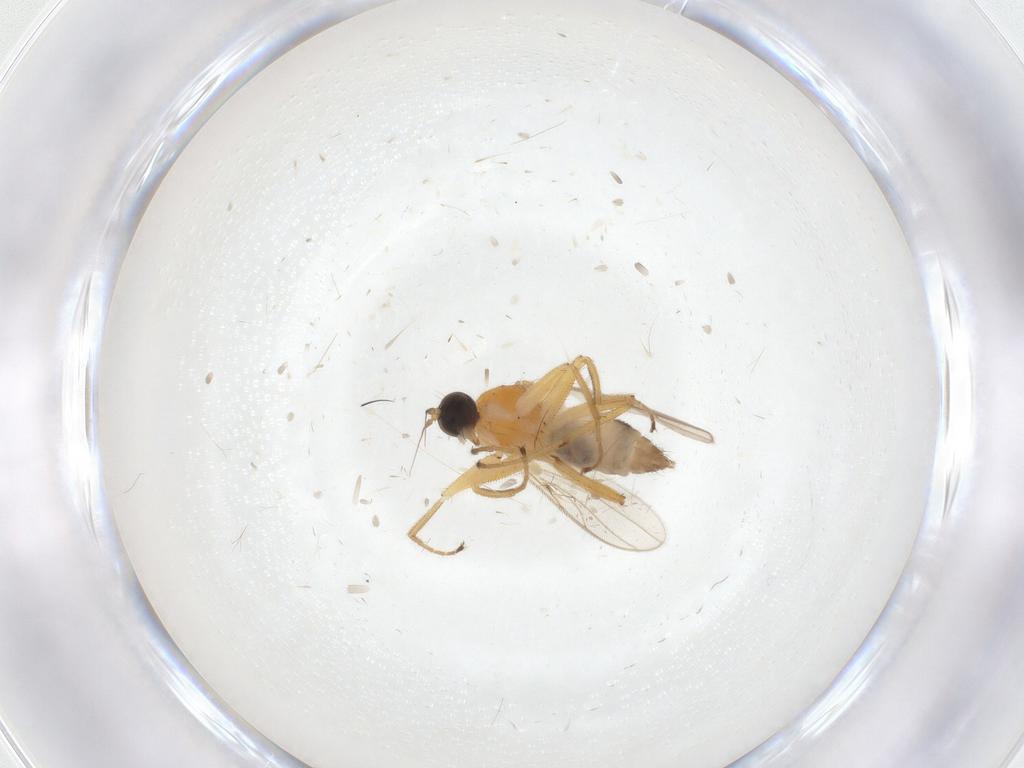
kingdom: Animalia
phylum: Arthropoda
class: Insecta
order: Diptera
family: Hybotidae
